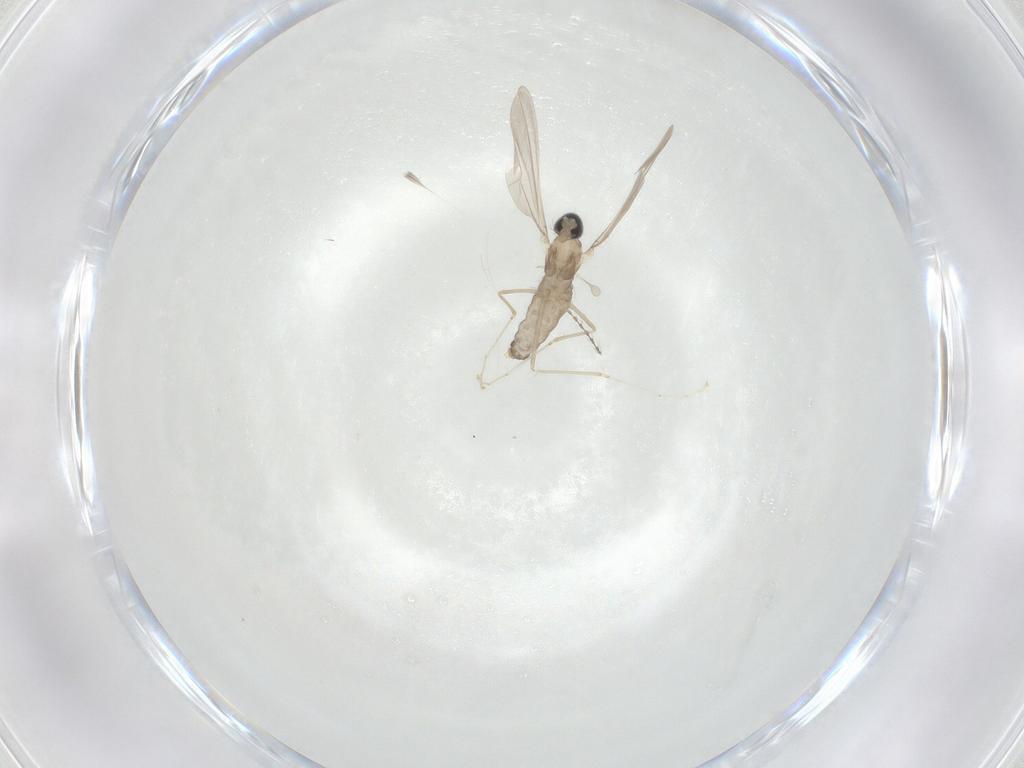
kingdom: Animalia
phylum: Arthropoda
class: Insecta
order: Diptera
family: Cecidomyiidae
